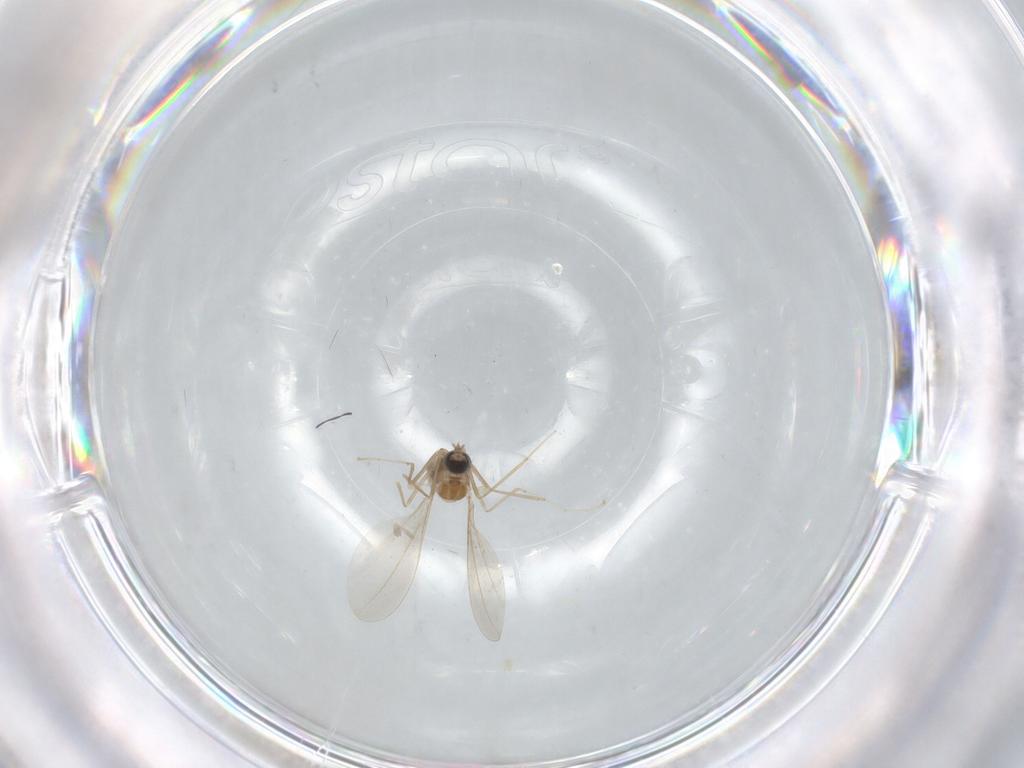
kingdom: Animalia
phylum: Arthropoda
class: Insecta
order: Diptera
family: Cecidomyiidae
